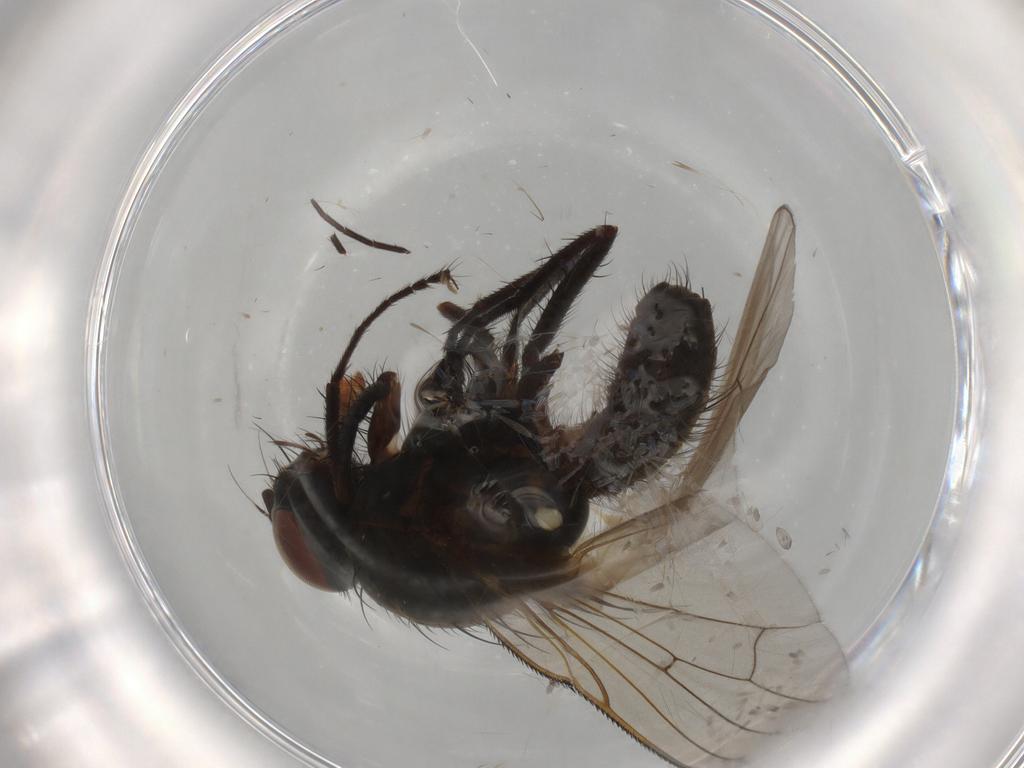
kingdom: Animalia
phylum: Arthropoda
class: Insecta
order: Diptera
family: Anthomyiidae
